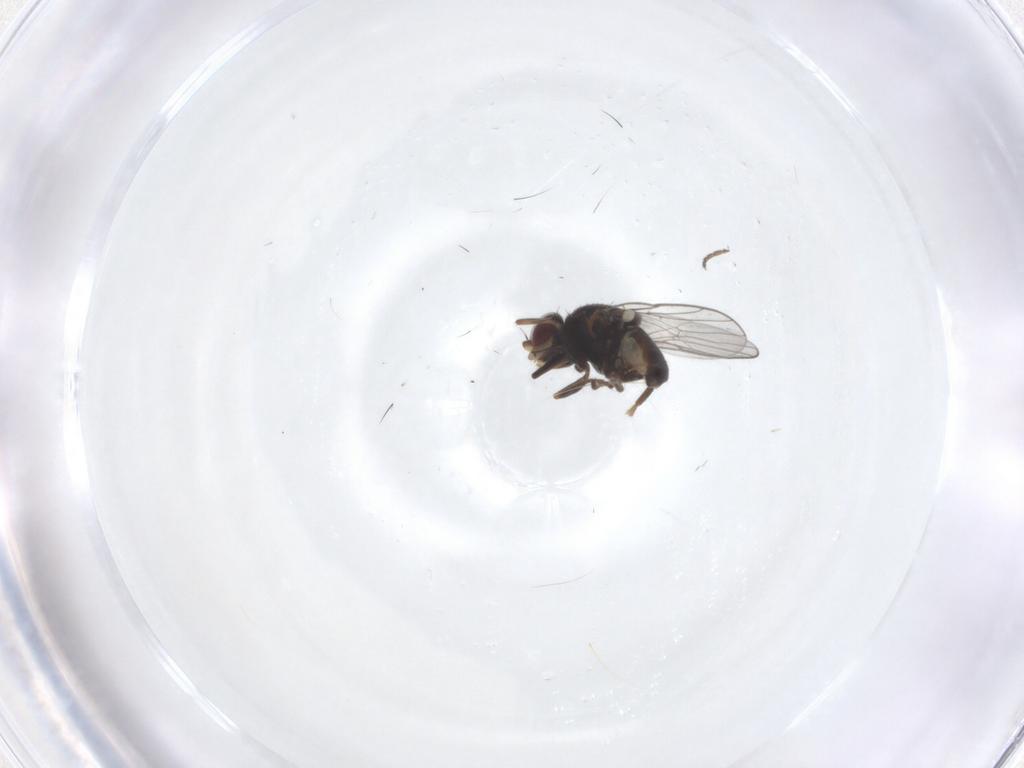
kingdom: Animalia
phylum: Arthropoda
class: Insecta
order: Diptera
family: Chloropidae
